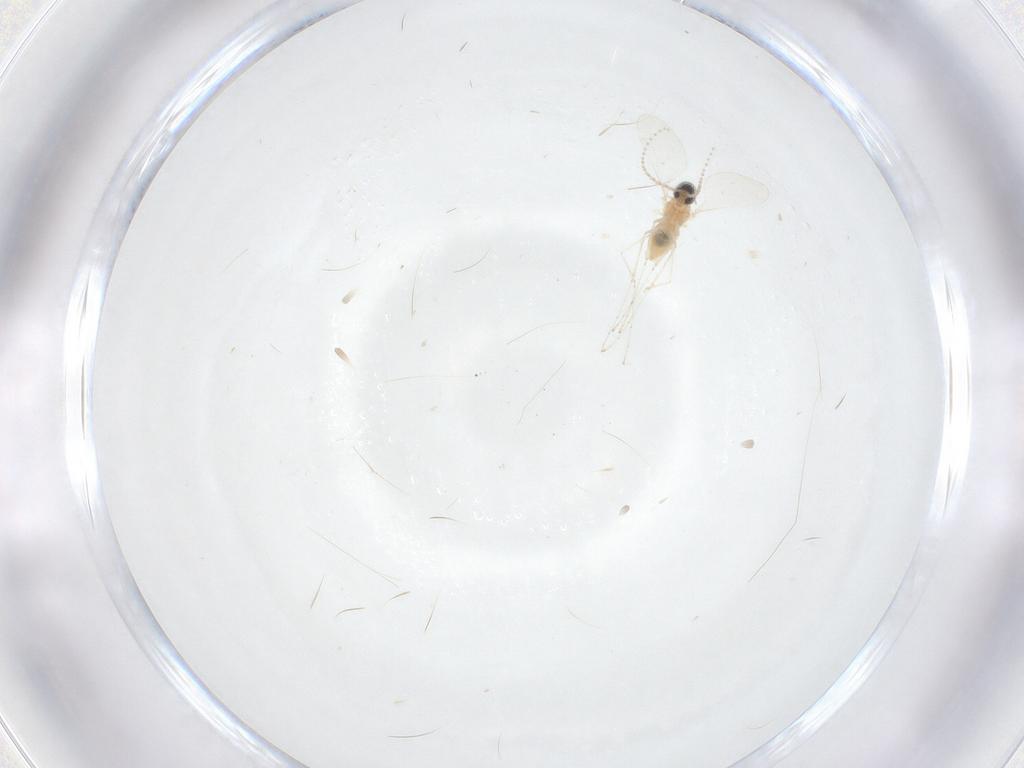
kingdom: Animalia
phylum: Arthropoda
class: Insecta
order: Diptera
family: Cecidomyiidae
